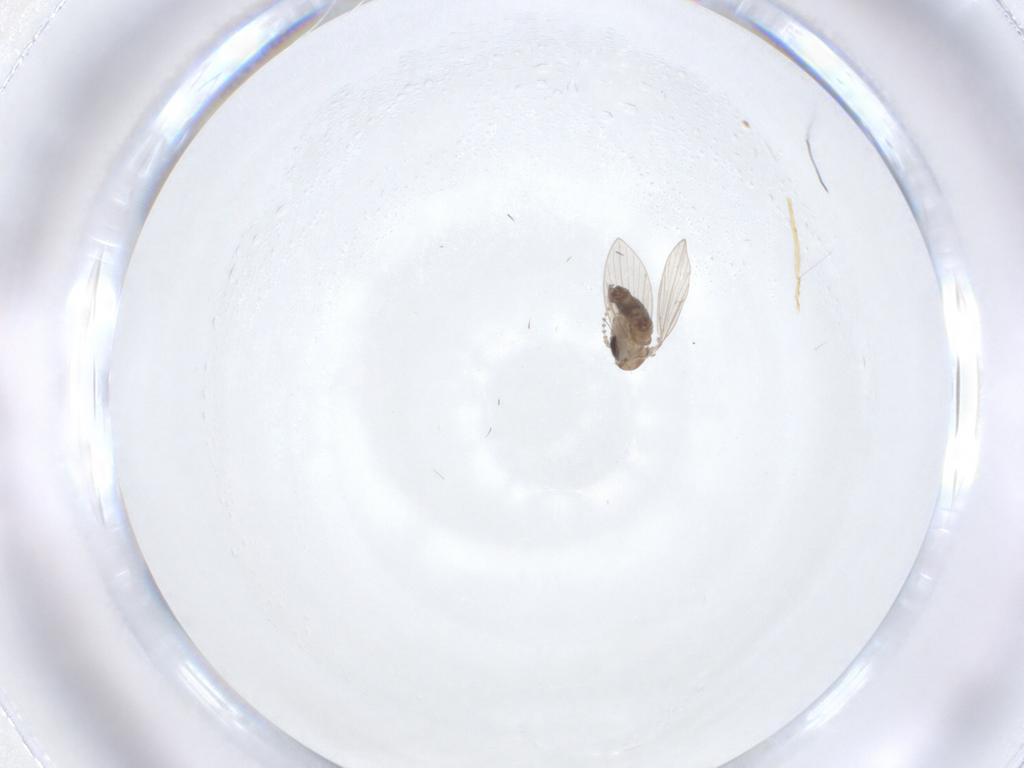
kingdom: Animalia
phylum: Arthropoda
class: Insecta
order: Diptera
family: Psychodidae
